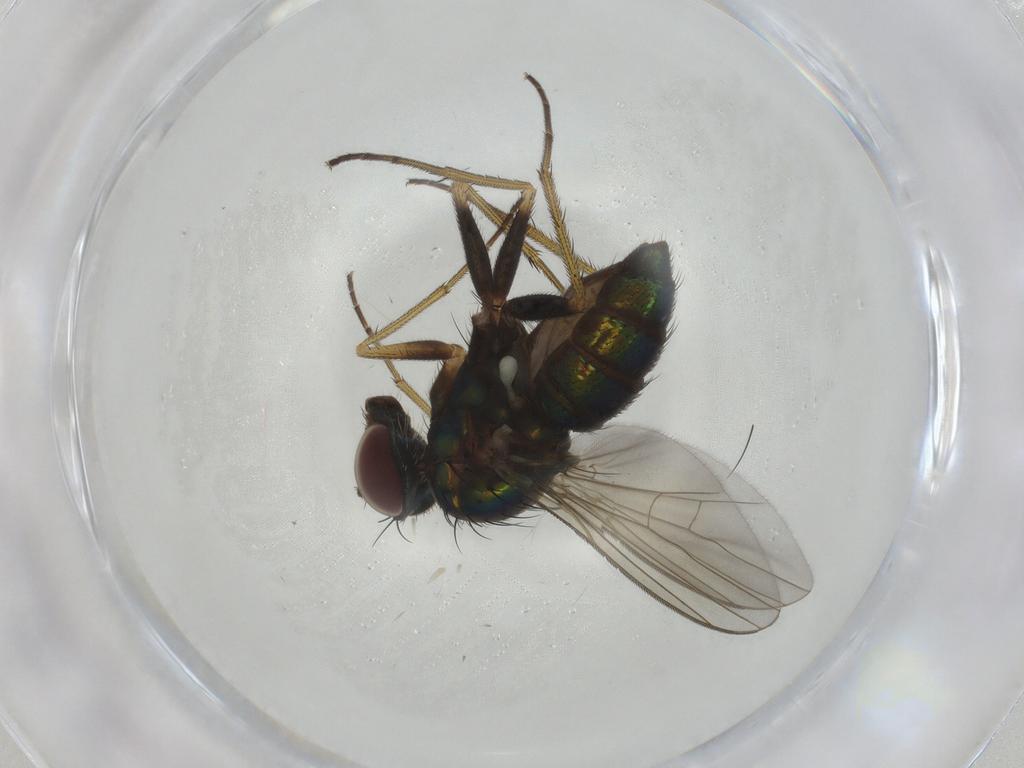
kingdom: Animalia
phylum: Arthropoda
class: Insecta
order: Diptera
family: Dolichopodidae
